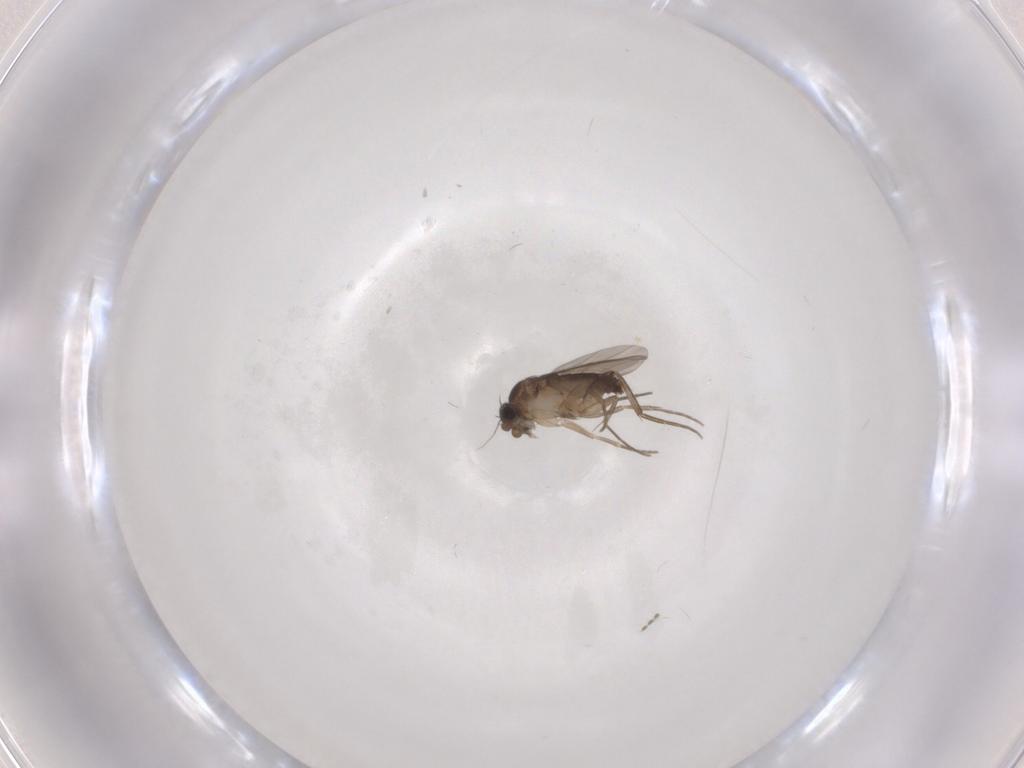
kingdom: Animalia
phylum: Arthropoda
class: Insecta
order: Diptera
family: Phoridae
